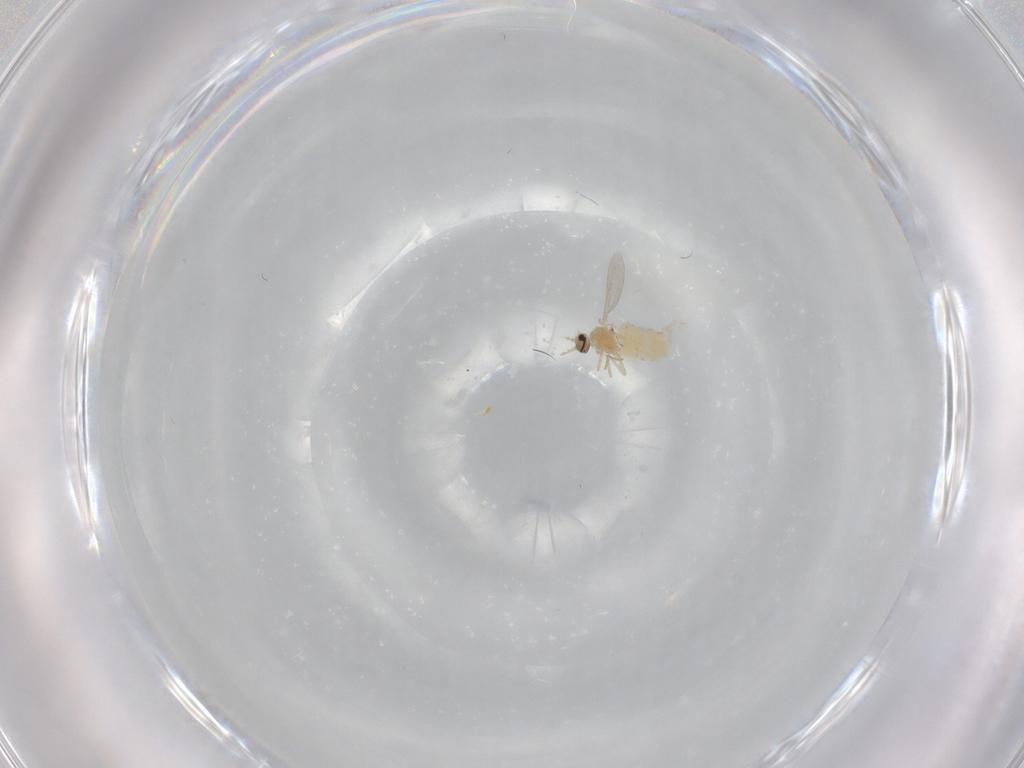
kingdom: Animalia
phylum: Arthropoda
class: Insecta
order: Diptera
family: Cecidomyiidae
